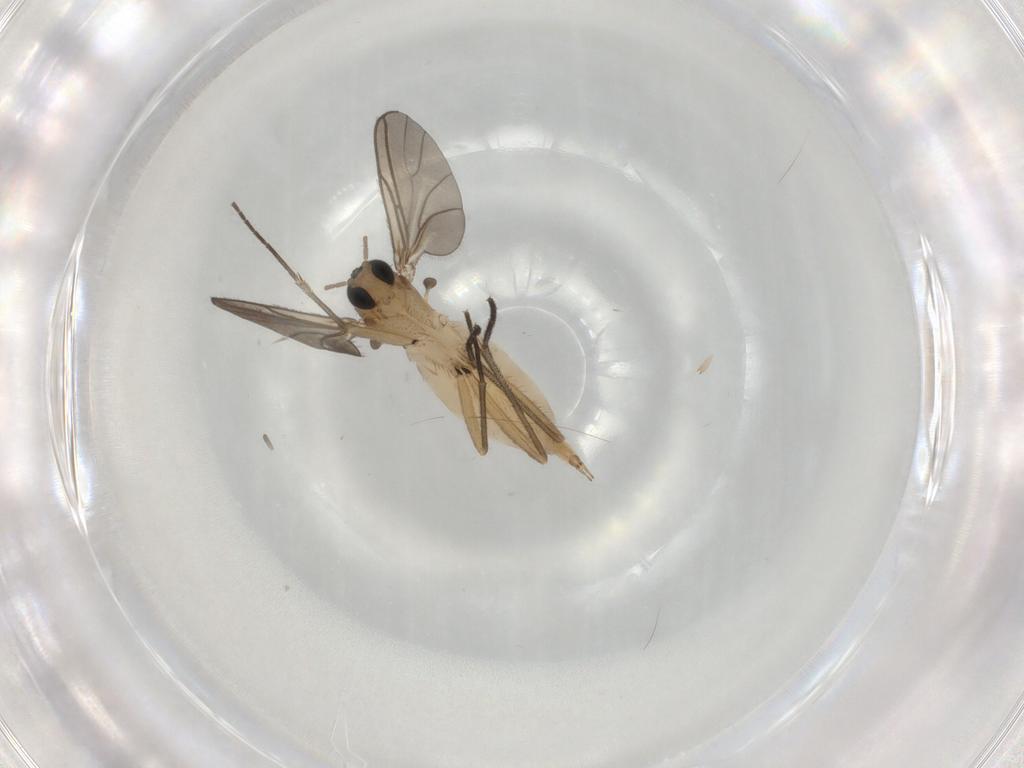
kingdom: Animalia
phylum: Arthropoda
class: Insecta
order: Diptera
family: Sciaridae
